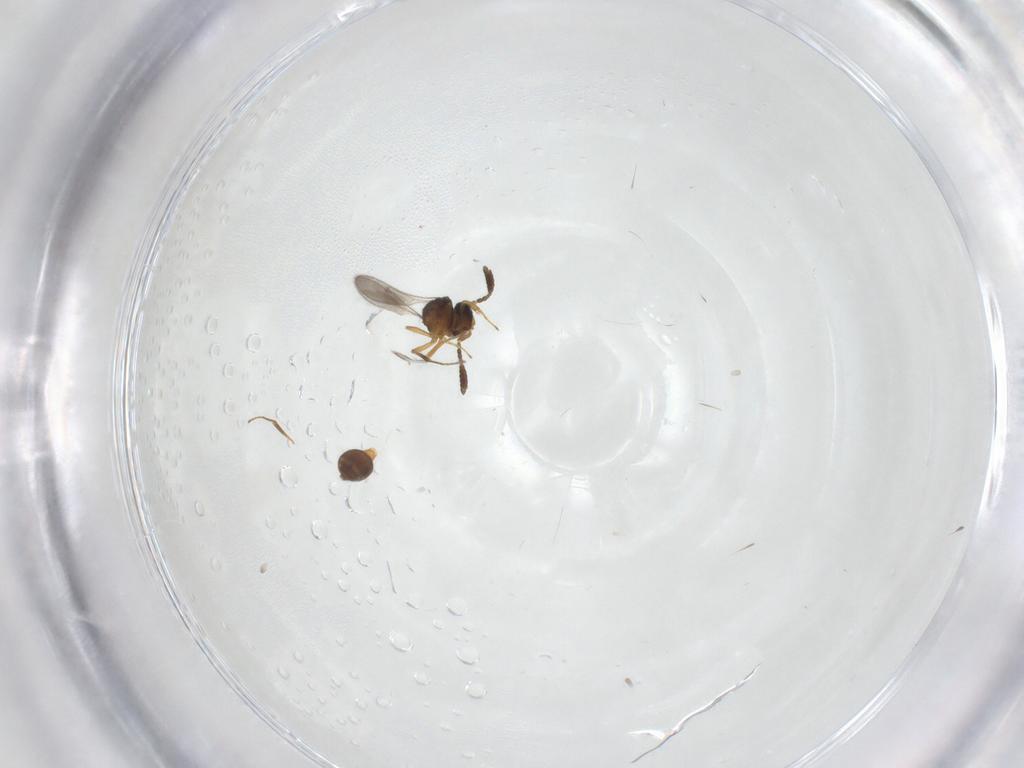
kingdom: Animalia
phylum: Arthropoda
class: Insecta
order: Hymenoptera
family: Scelionidae
